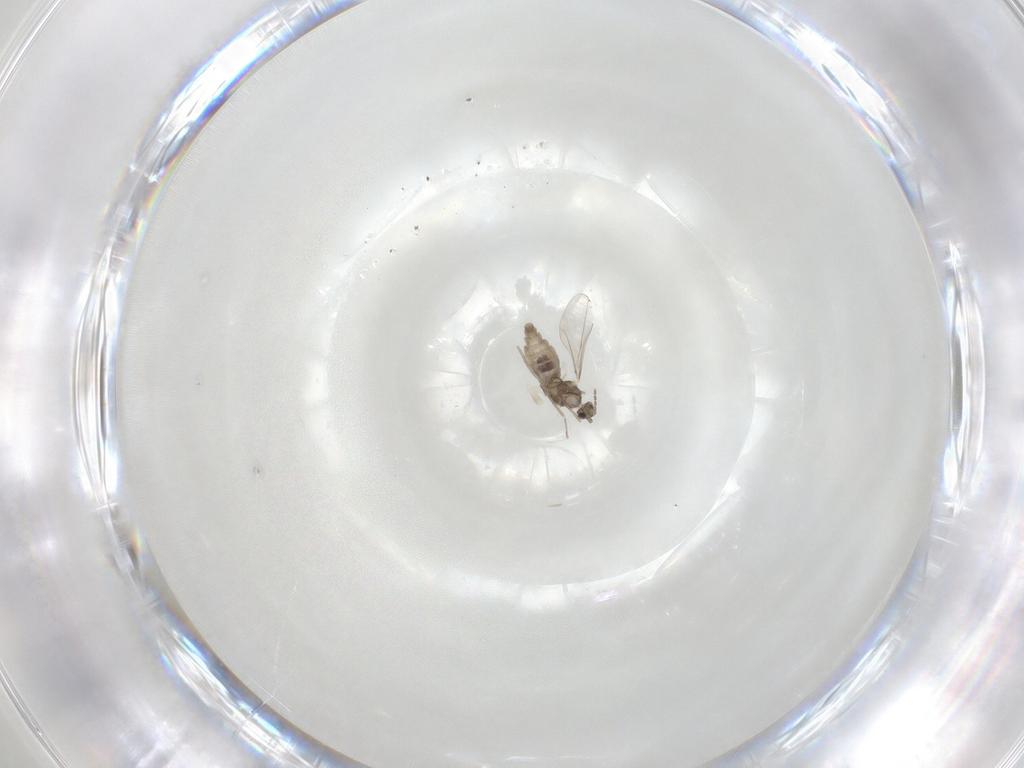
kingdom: Animalia
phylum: Arthropoda
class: Insecta
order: Diptera
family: Cecidomyiidae
